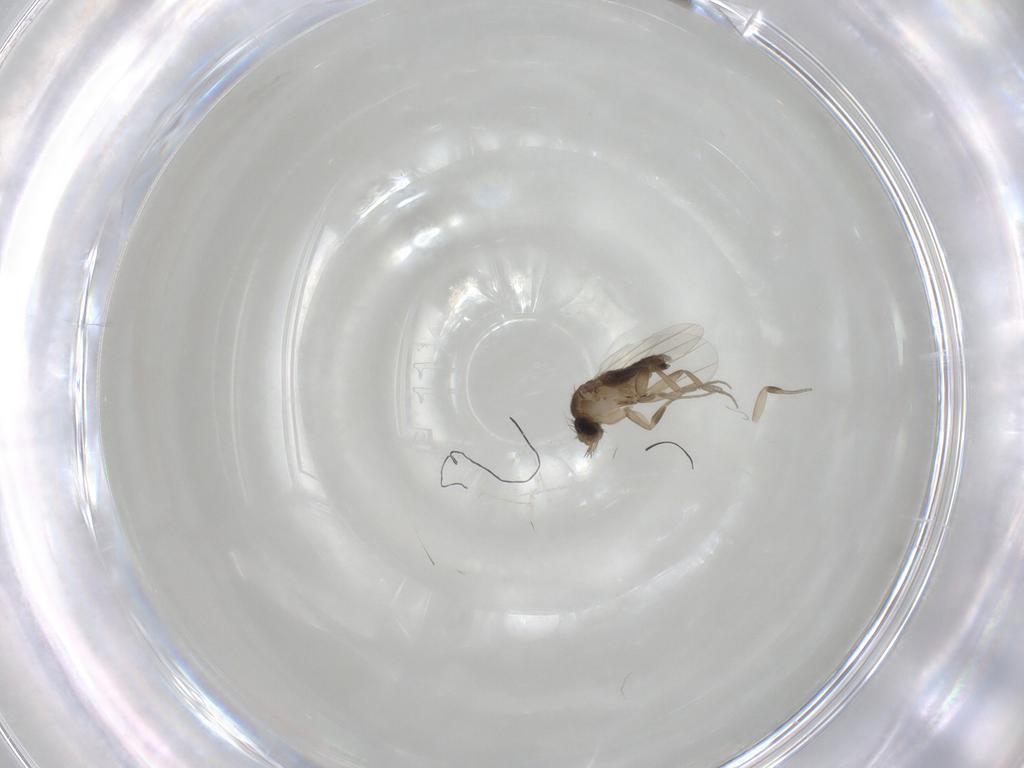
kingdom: Animalia
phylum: Arthropoda
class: Insecta
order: Diptera
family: Phoridae
